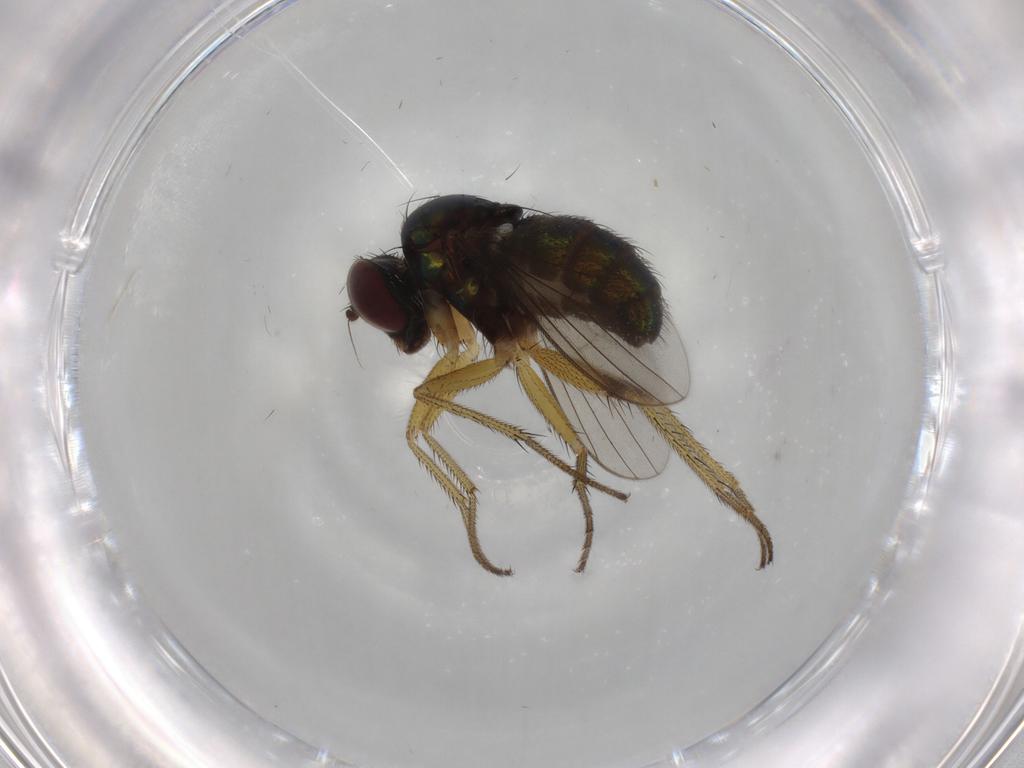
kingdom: Animalia
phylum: Arthropoda
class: Insecta
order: Diptera
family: Dolichopodidae
